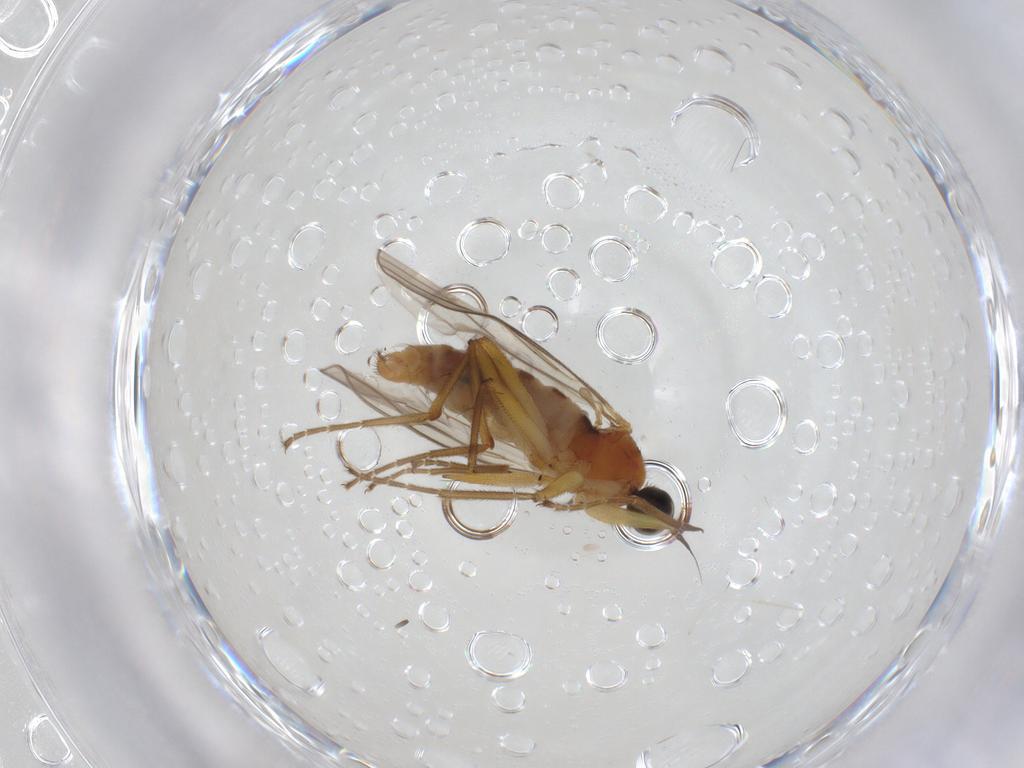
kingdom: Animalia
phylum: Arthropoda
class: Insecta
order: Diptera
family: Hybotidae
